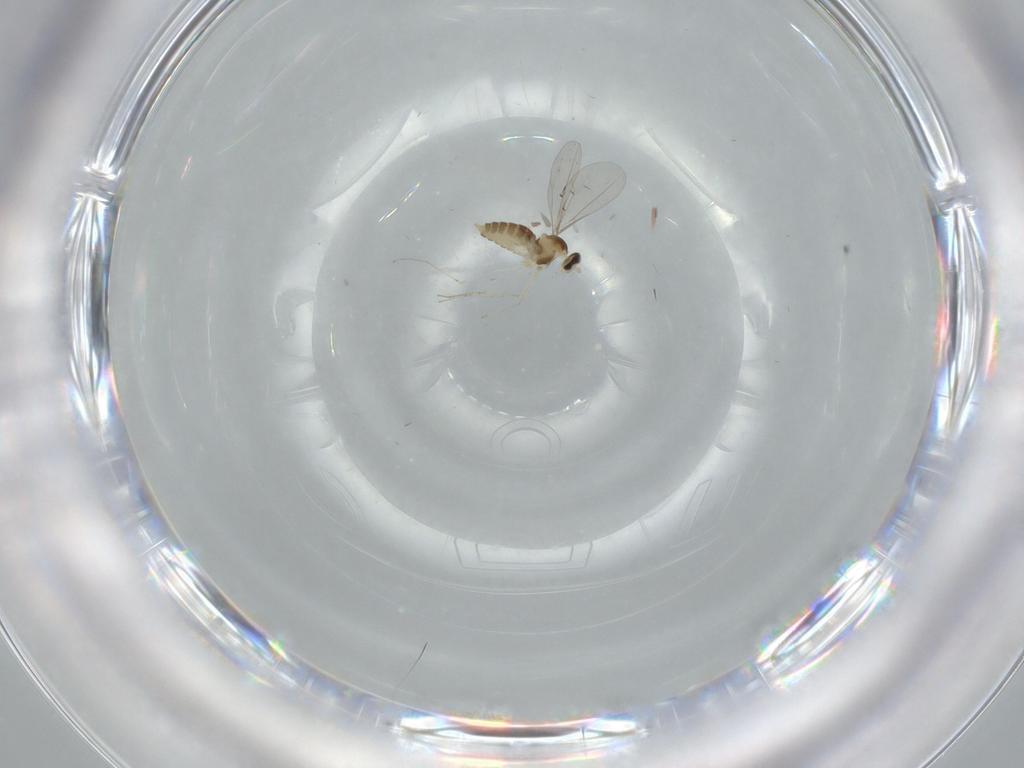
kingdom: Animalia
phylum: Arthropoda
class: Insecta
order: Diptera
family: Cecidomyiidae
